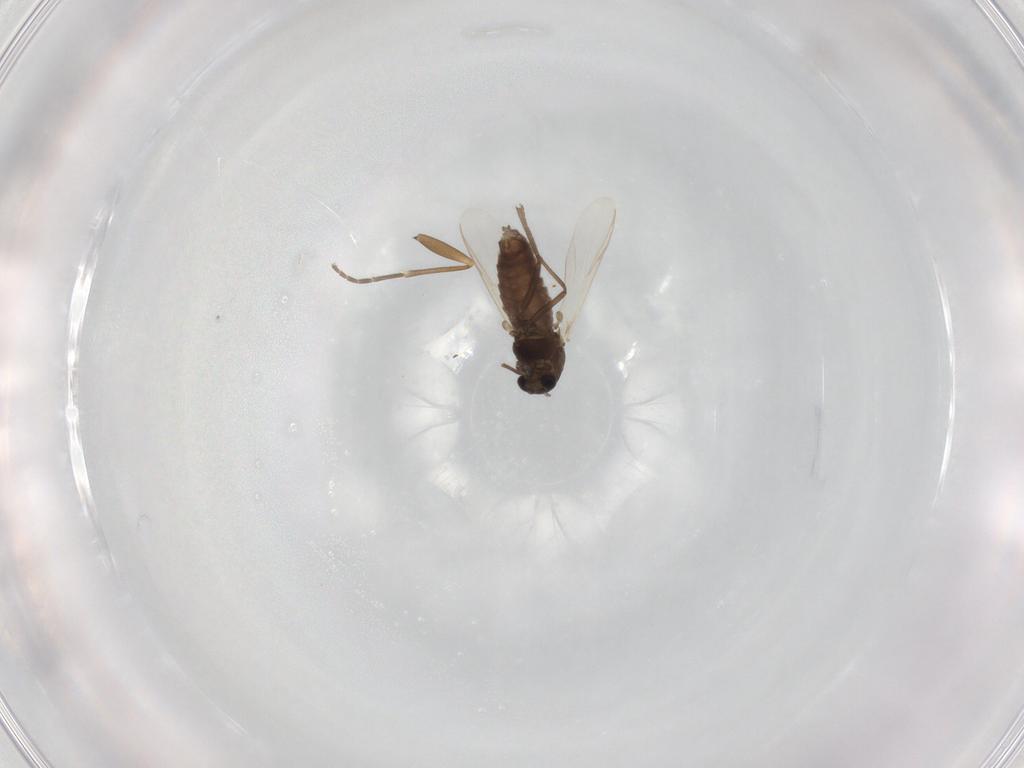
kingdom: Animalia
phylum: Arthropoda
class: Insecta
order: Diptera
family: Chironomidae
